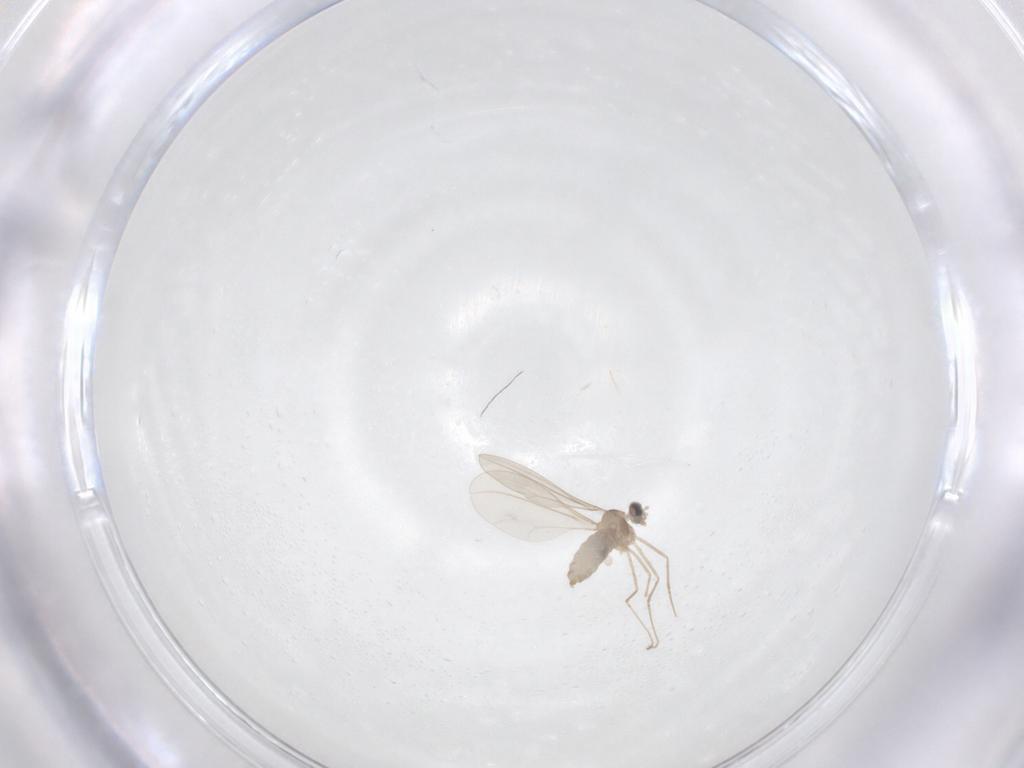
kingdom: Animalia
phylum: Arthropoda
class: Insecta
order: Diptera
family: Cecidomyiidae
